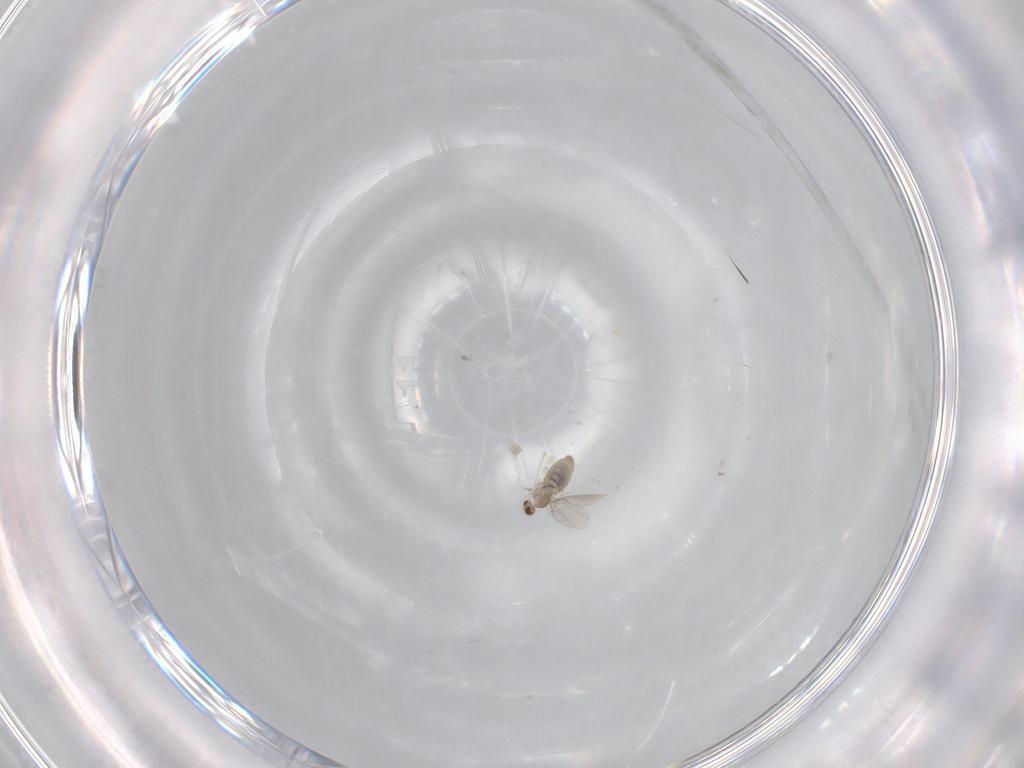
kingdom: Animalia
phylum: Arthropoda
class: Insecta
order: Diptera
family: Cecidomyiidae
